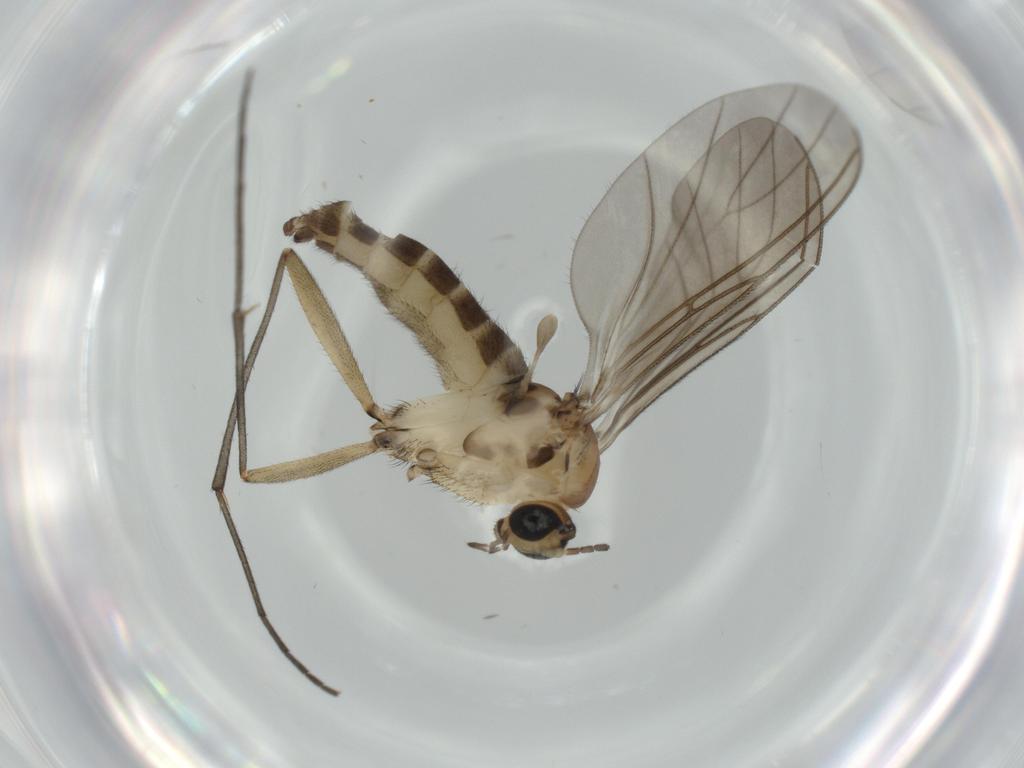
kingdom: Animalia
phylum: Arthropoda
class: Insecta
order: Diptera
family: Sciaridae
